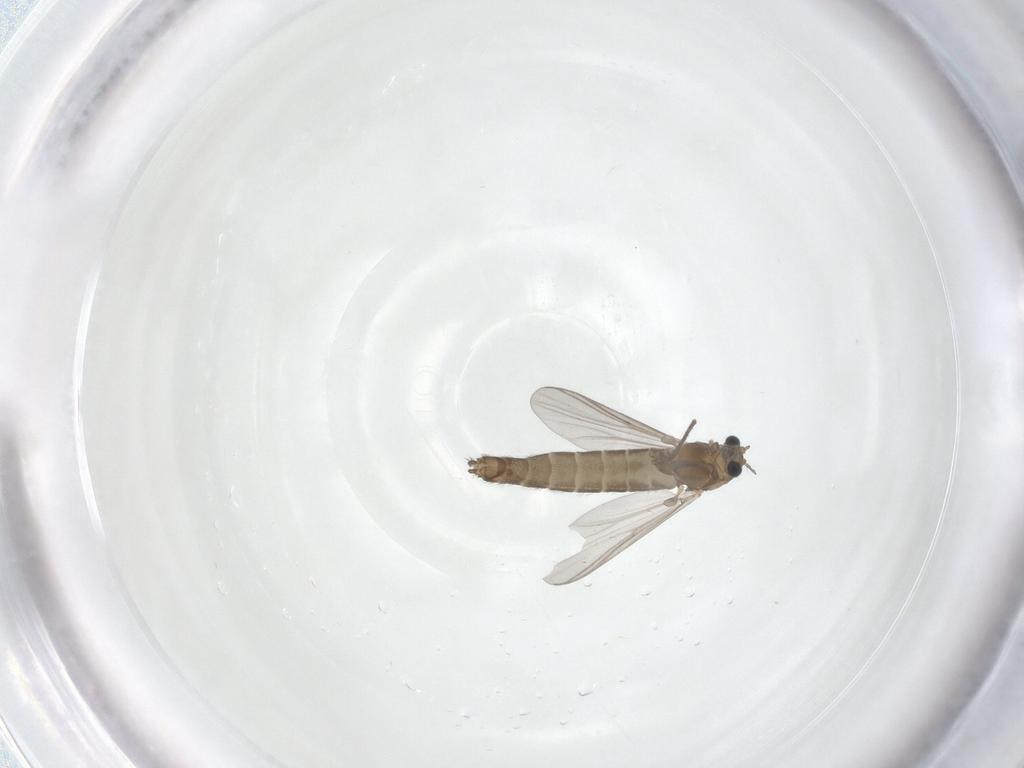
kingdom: Animalia
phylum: Arthropoda
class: Insecta
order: Diptera
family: Chironomidae
